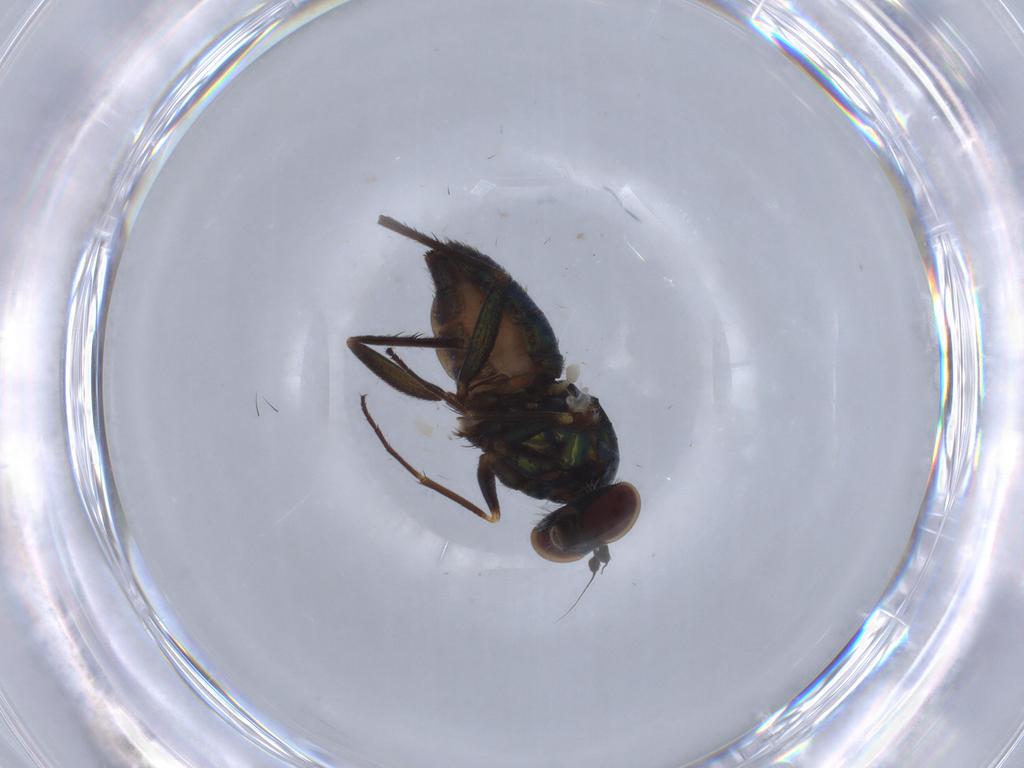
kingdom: Animalia
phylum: Arthropoda
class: Insecta
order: Diptera
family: Dolichopodidae
